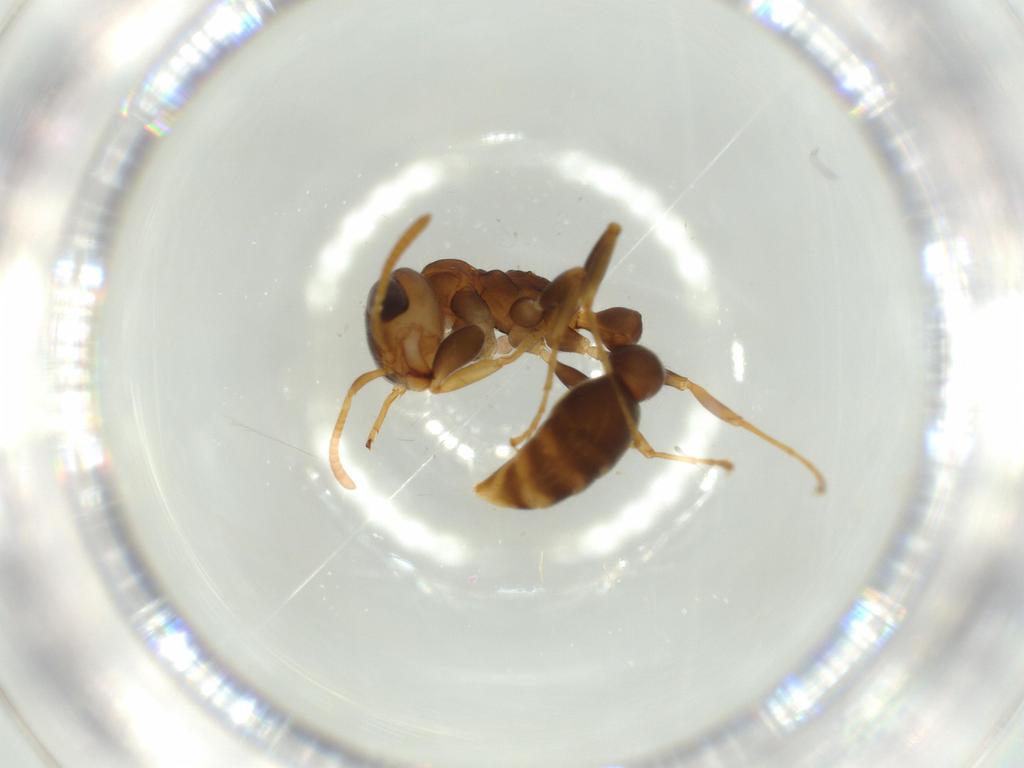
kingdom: Animalia
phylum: Arthropoda
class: Insecta
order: Hymenoptera
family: Formicidae
